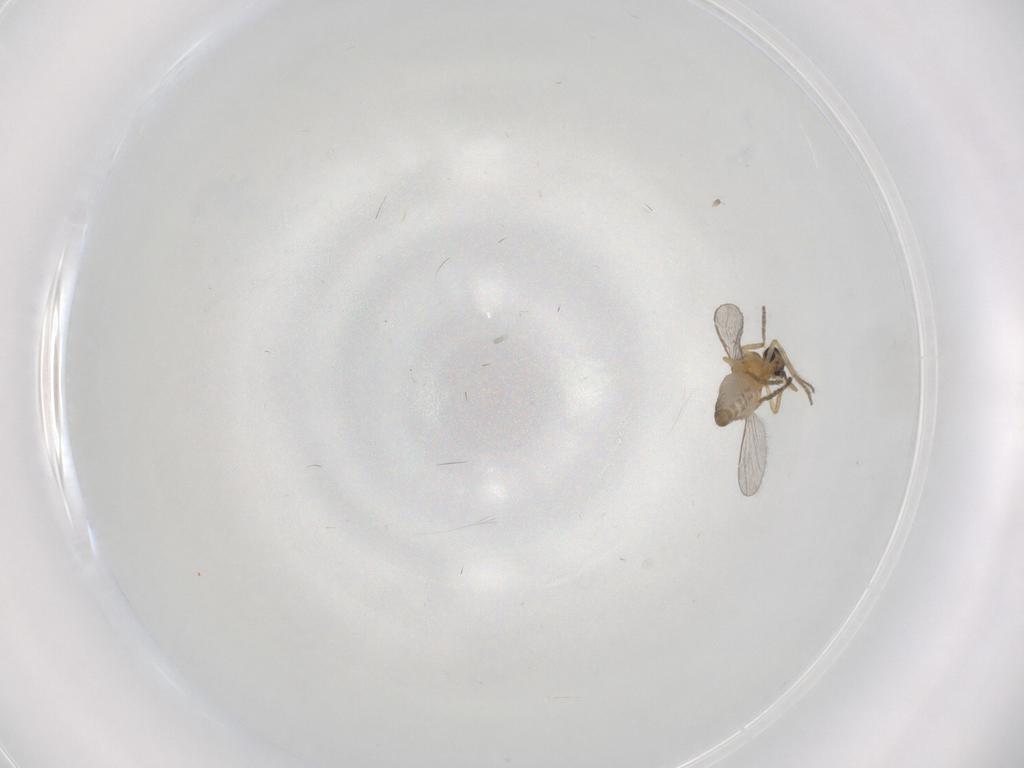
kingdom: Animalia
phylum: Arthropoda
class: Insecta
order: Diptera
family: Ceratopogonidae
